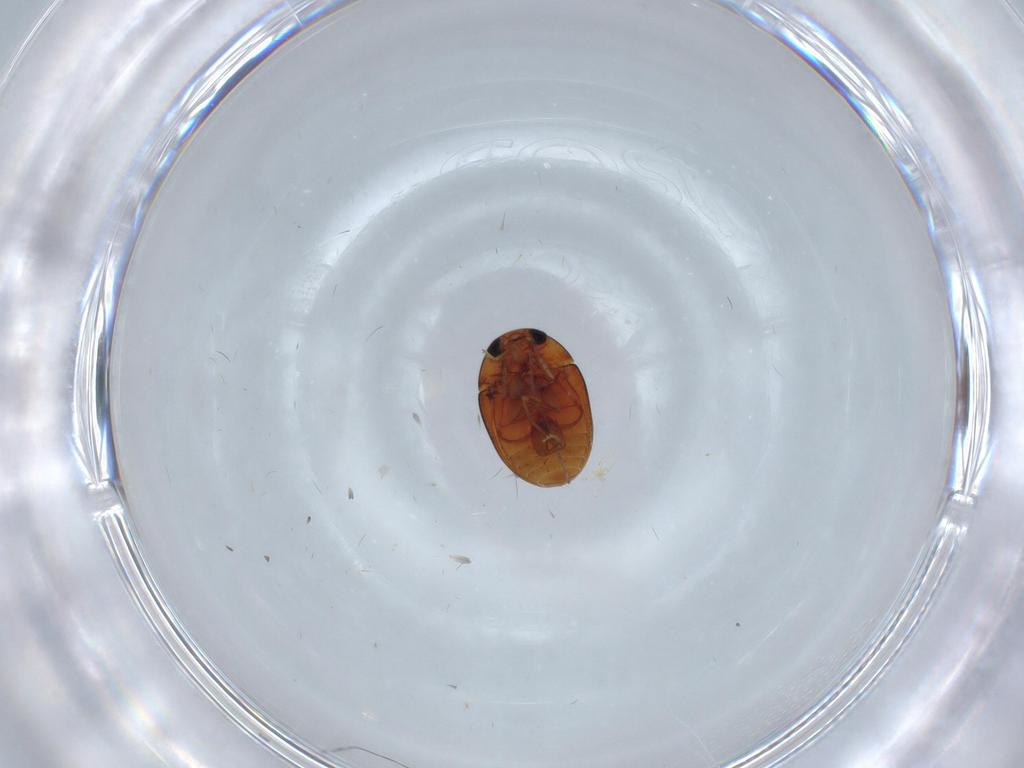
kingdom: Animalia
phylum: Arthropoda
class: Insecta
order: Coleoptera
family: Phalacridae
